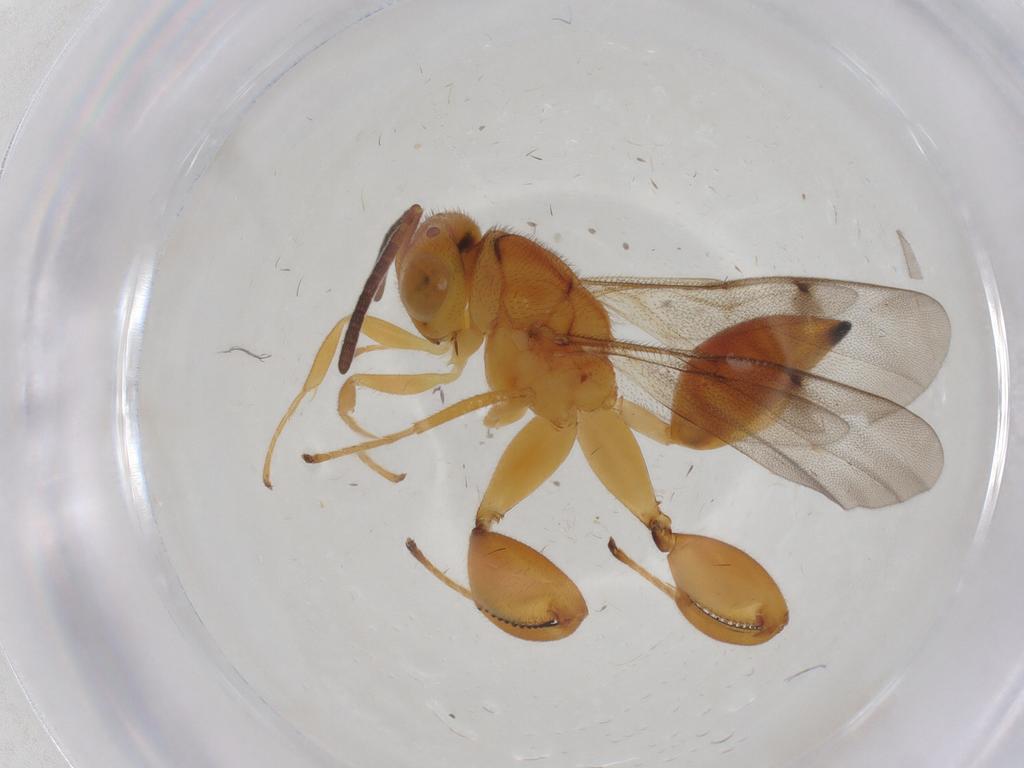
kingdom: Animalia
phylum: Arthropoda
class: Insecta
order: Hymenoptera
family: Chalcididae
